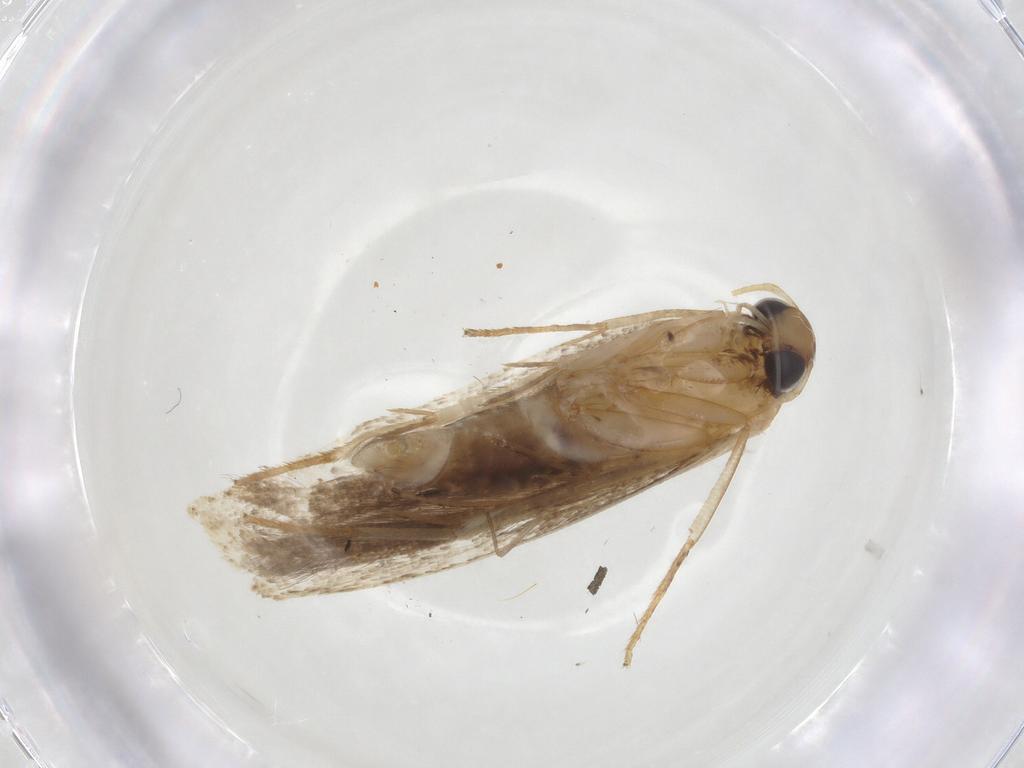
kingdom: Animalia
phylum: Arthropoda
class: Insecta
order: Lepidoptera
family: Gelechiidae
